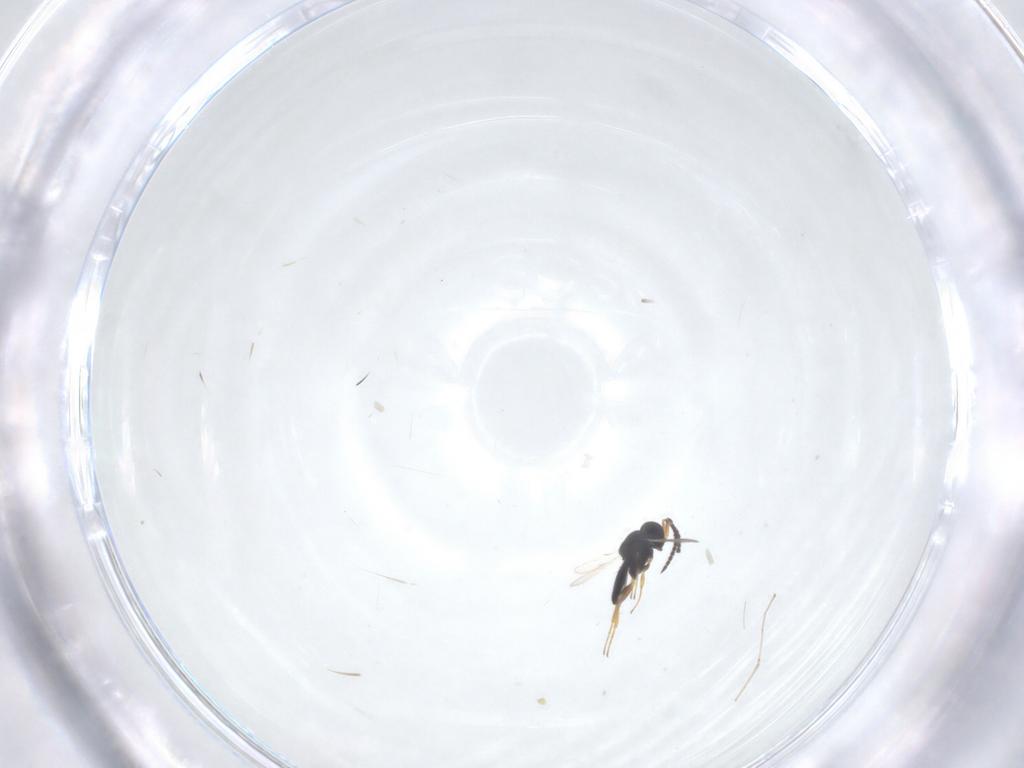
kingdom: Animalia
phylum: Arthropoda
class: Insecta
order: Hymenoptera
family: Scelionidae
